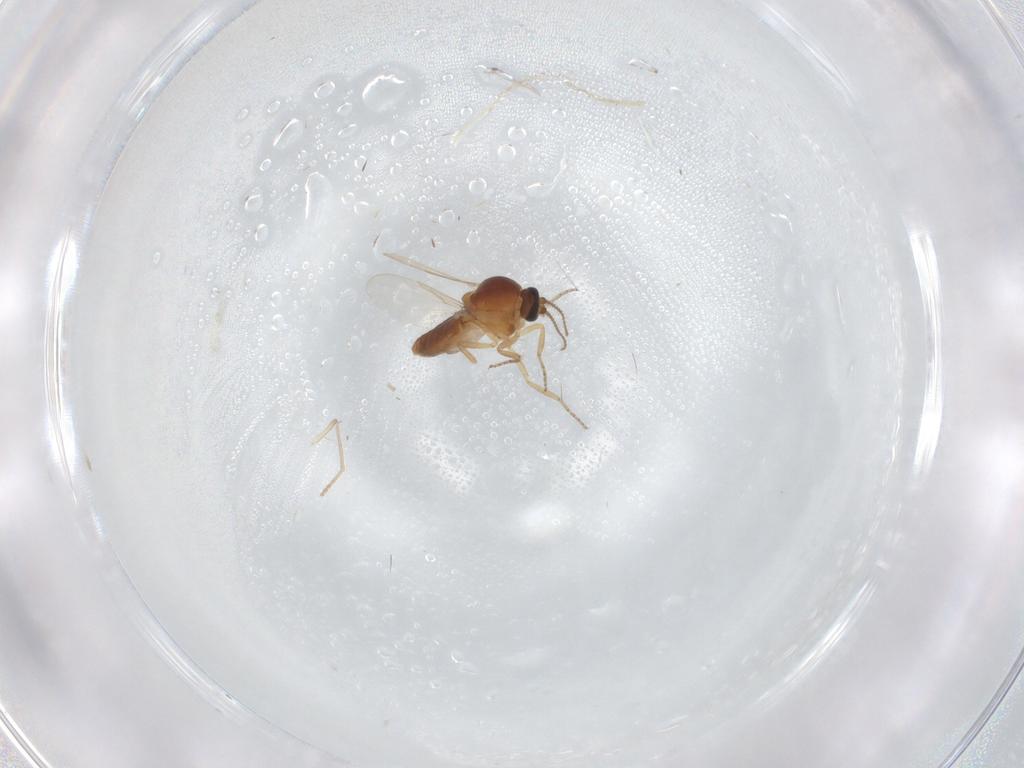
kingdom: Animalia
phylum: Arthropoda
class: Insecta
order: Diptera
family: Ceratopogonidae
